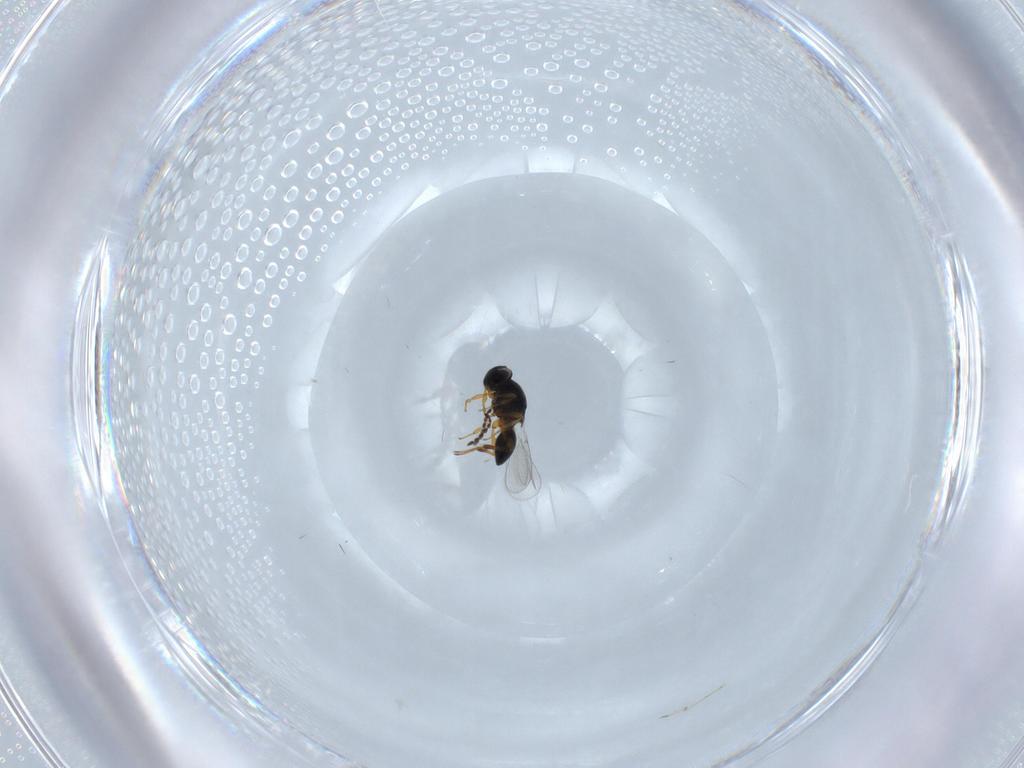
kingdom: Animalia
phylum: Arthropoda
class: Insecta
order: Hymenoptera
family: Platygastridae
